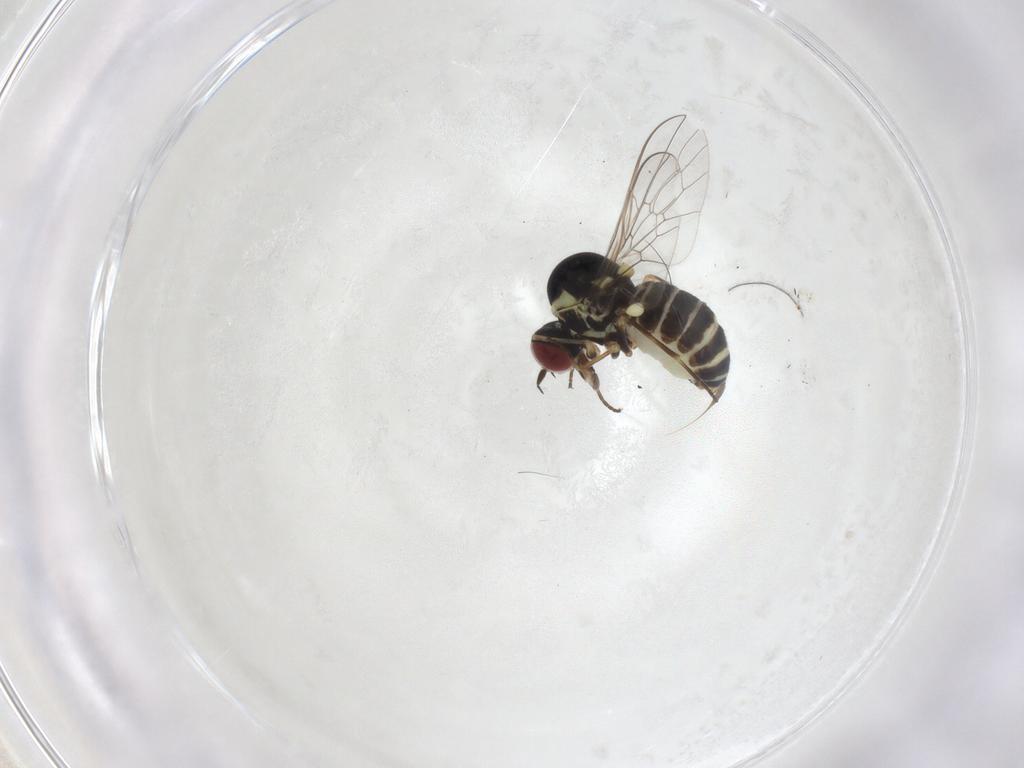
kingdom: Animalia
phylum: Arthropoda
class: Insecta
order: Diptera
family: Bombyliidae
